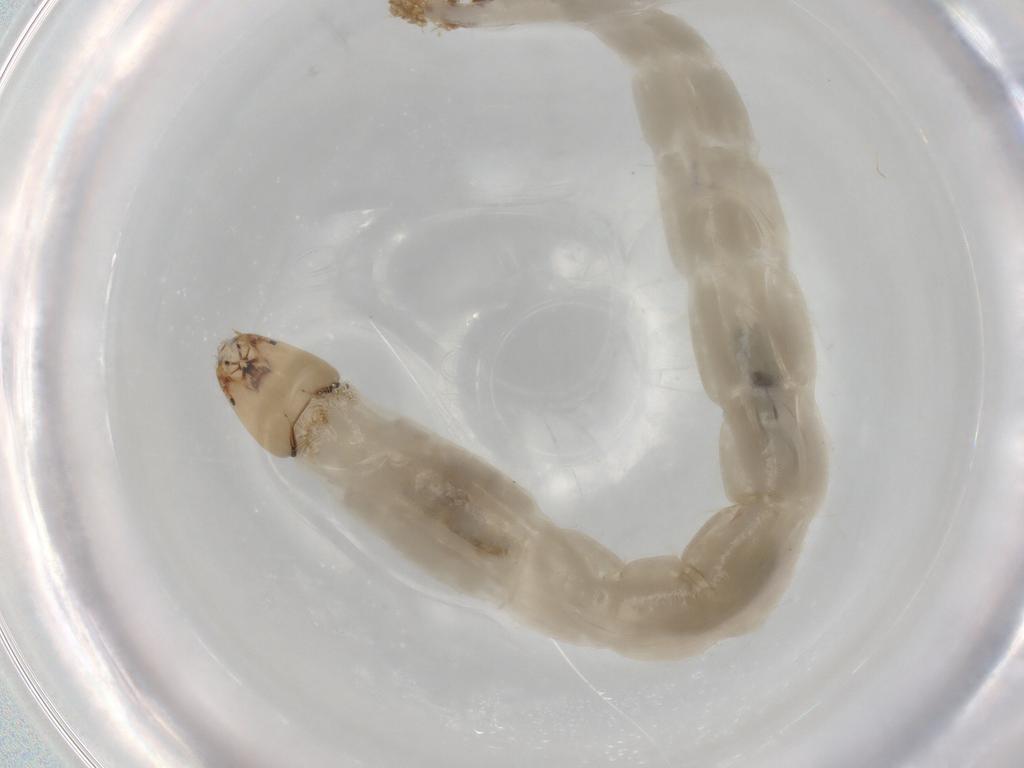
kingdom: Animalia
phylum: Arthropoda
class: Insecta
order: Diptera
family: Chironomidae
